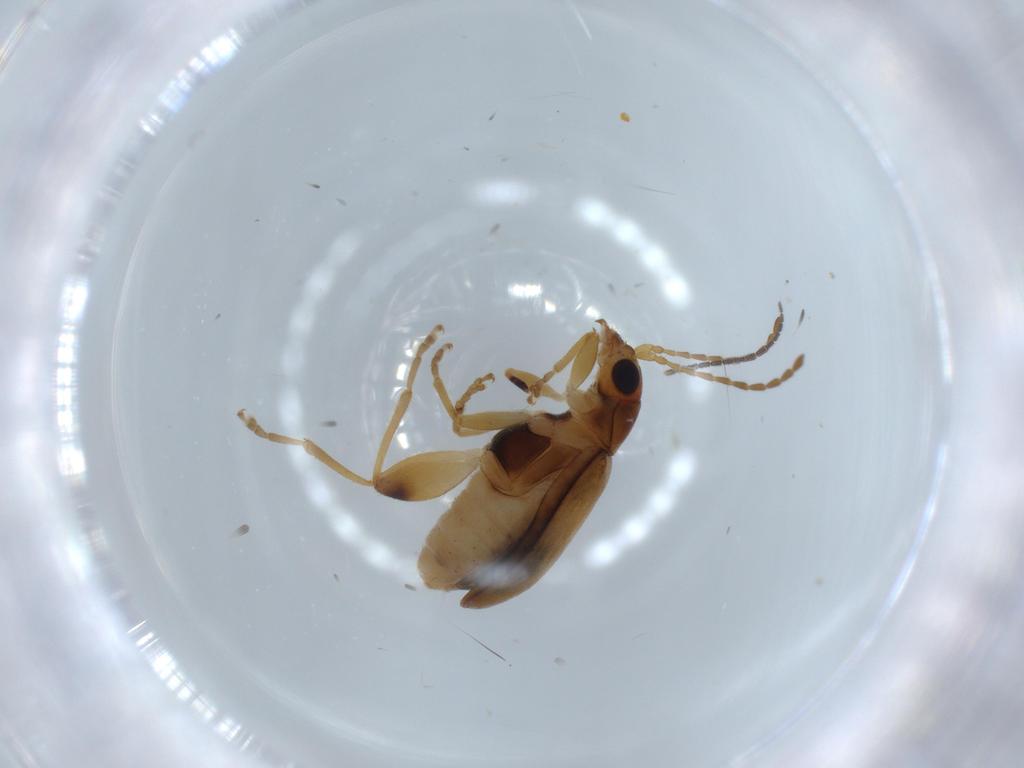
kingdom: Animalia
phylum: Arthropoda
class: Insecta
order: Coleoptera
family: Chrysomelidae
